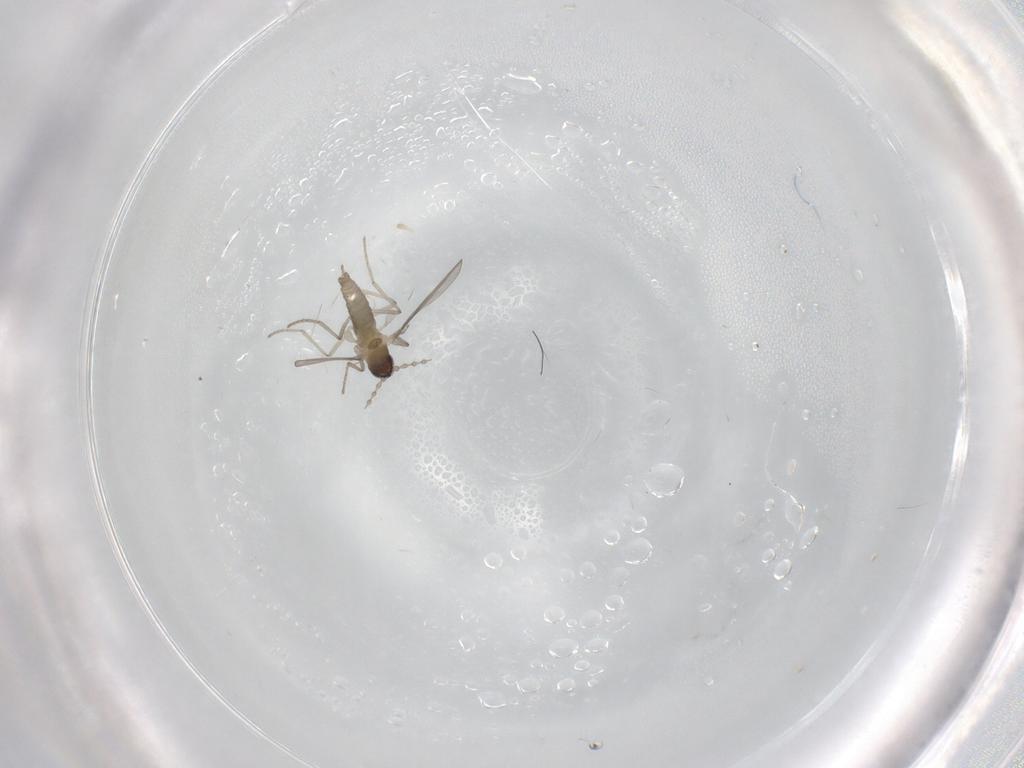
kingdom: Animalia
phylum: Arthropoda
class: Insecta
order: Diptera
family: Cecidomyiidae
